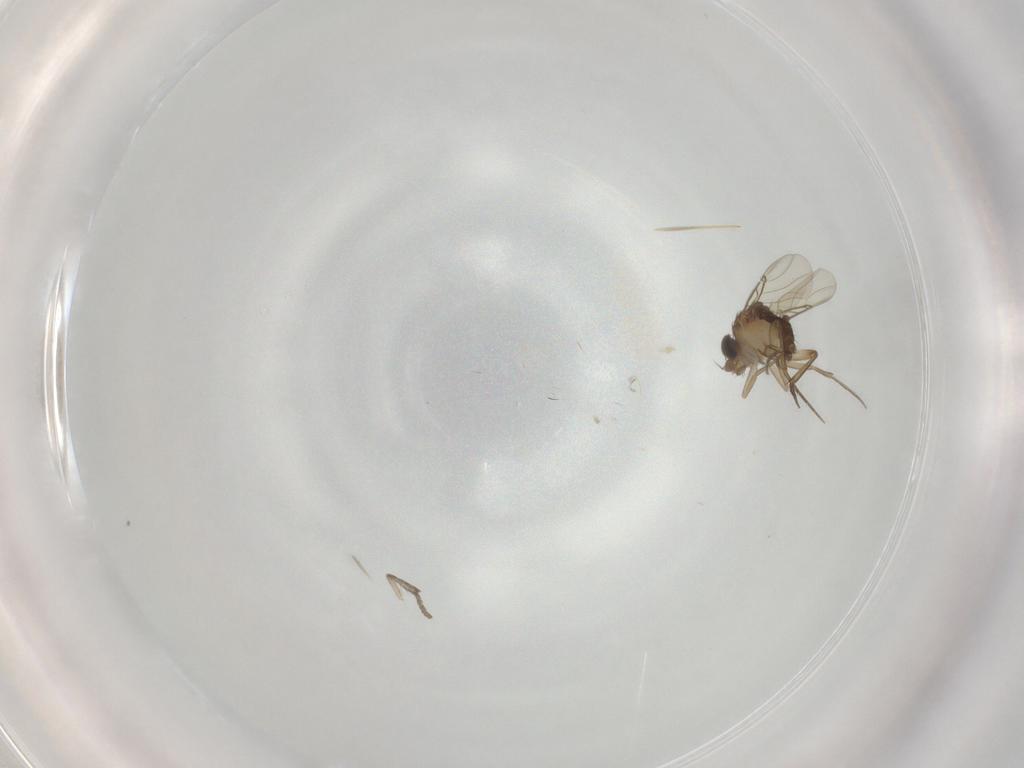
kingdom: Animalia
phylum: Arthropoda
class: Insecta
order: Diptera
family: Phoridae
